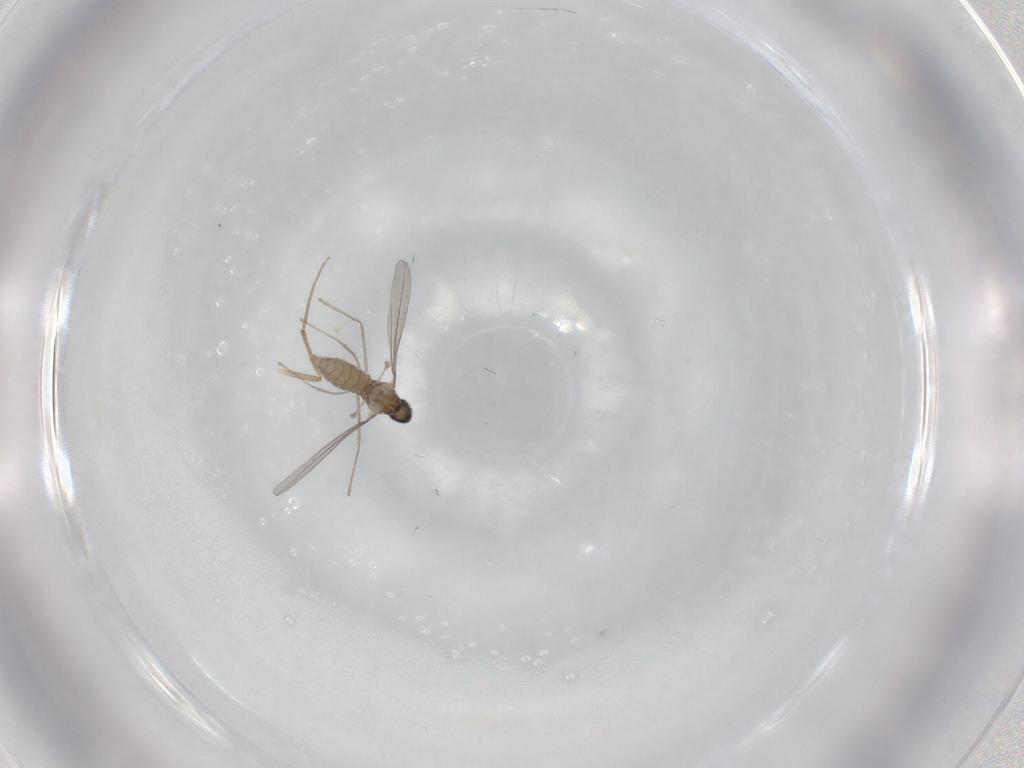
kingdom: Animalia
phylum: Arthropoda
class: Insecta
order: Diptera
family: Cecidomyiidae
